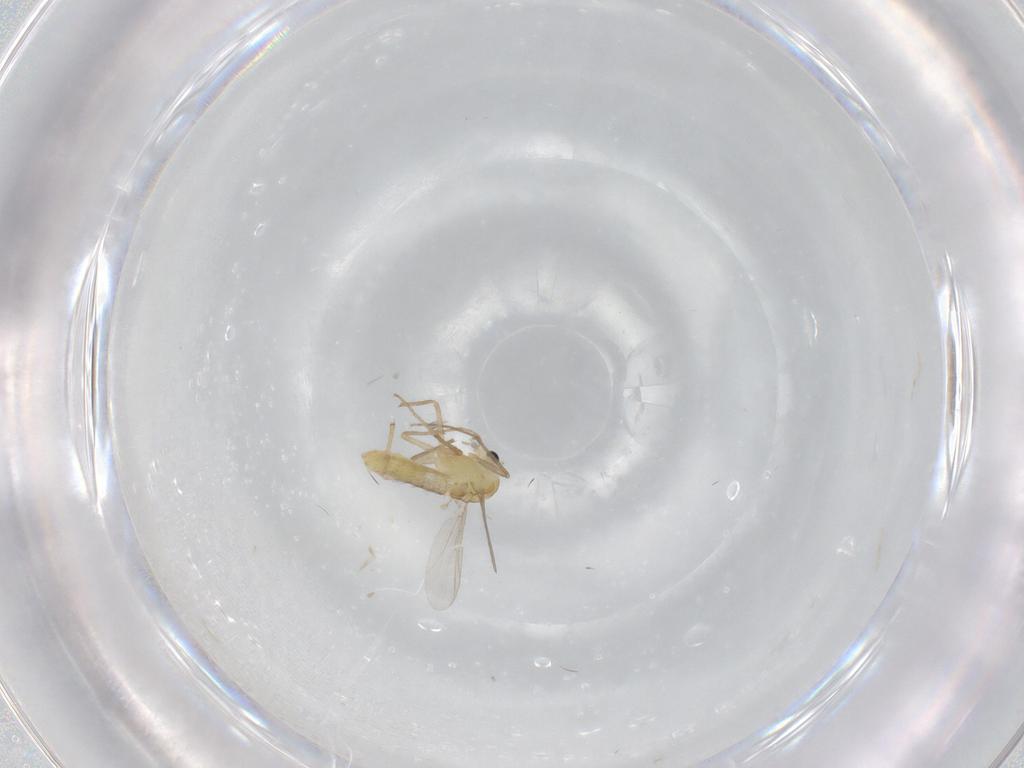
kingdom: Animalia
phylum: Arthropoda
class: Insecta
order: Diptera
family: Chironomidae
